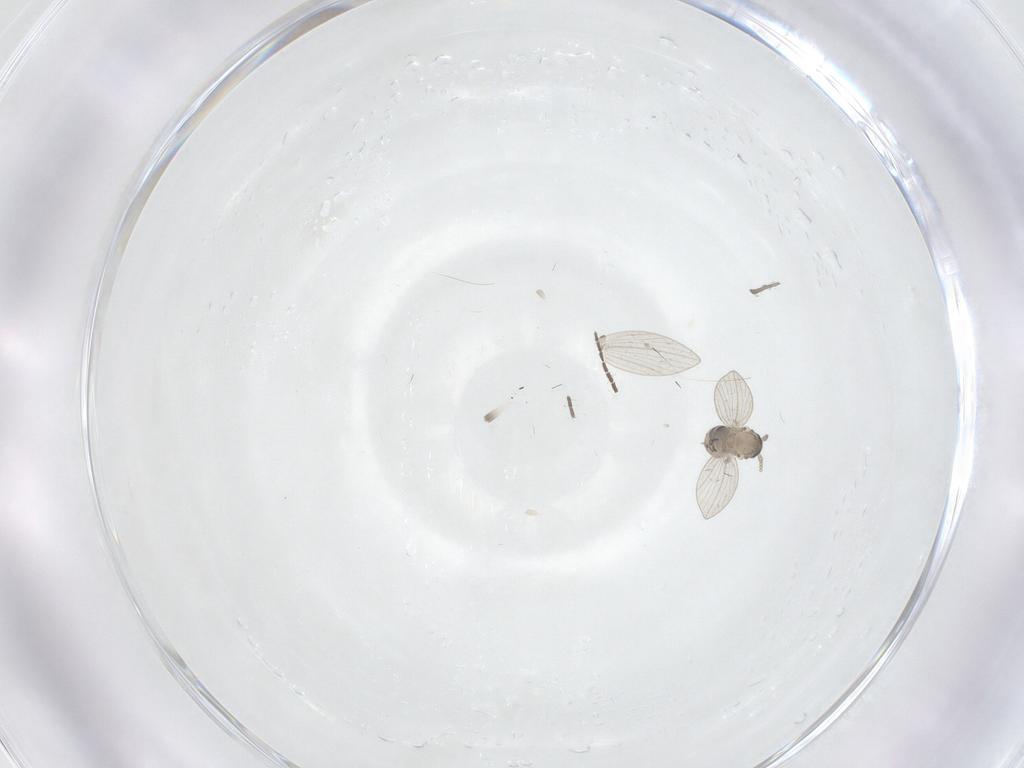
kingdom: Animalia
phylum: Arthropoda
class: Insecta
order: Diptera
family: Psychodidae
